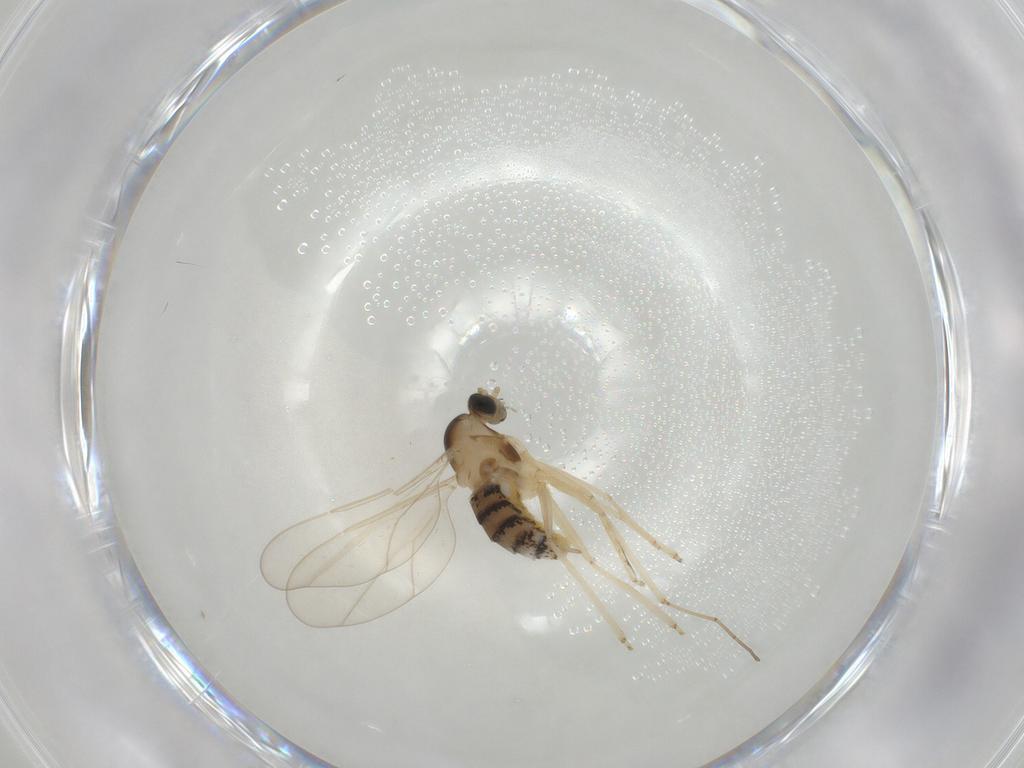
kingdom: Animalia
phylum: Arthropoda
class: Insecta
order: Diptera
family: Cecidomyiidae
